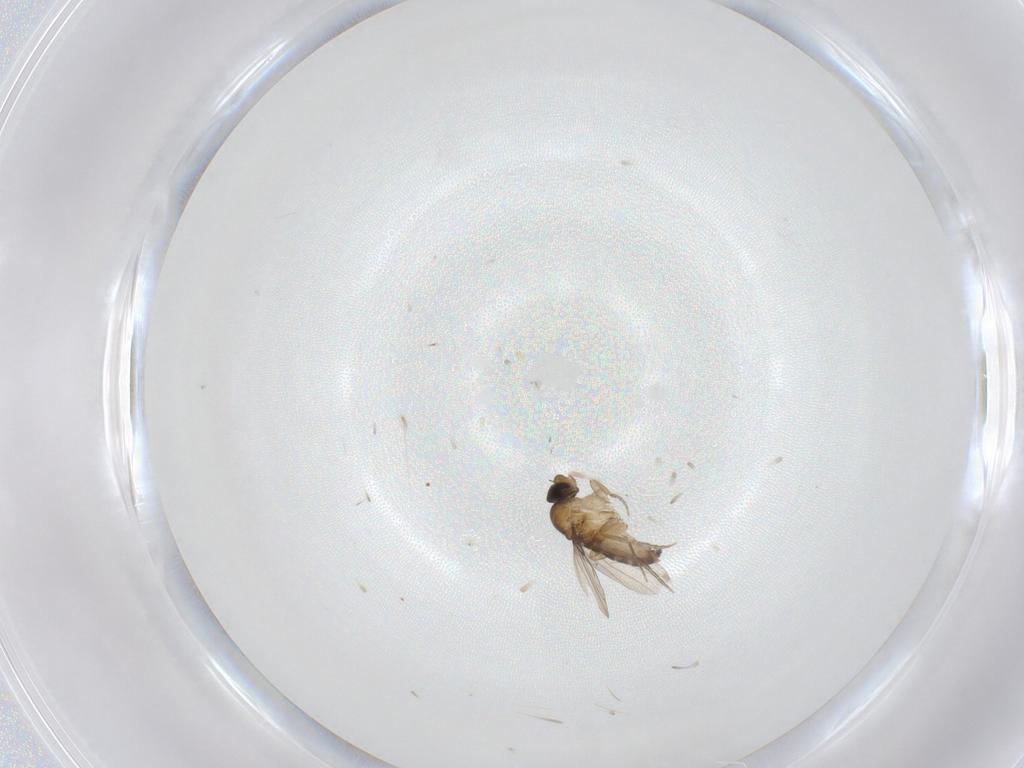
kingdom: Animalia
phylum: Arthropoda
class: Insecta
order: Diptera
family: Phoridae
